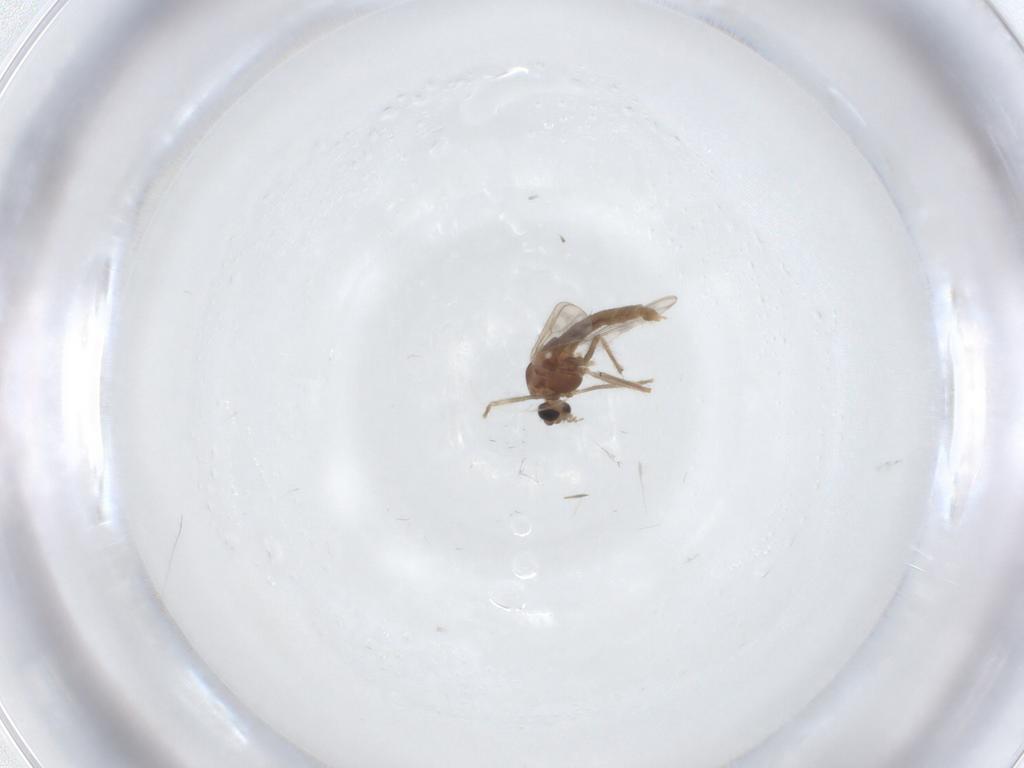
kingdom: Animalia
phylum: Arthropoda
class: Insecta
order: Diptera
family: Chironomidae
